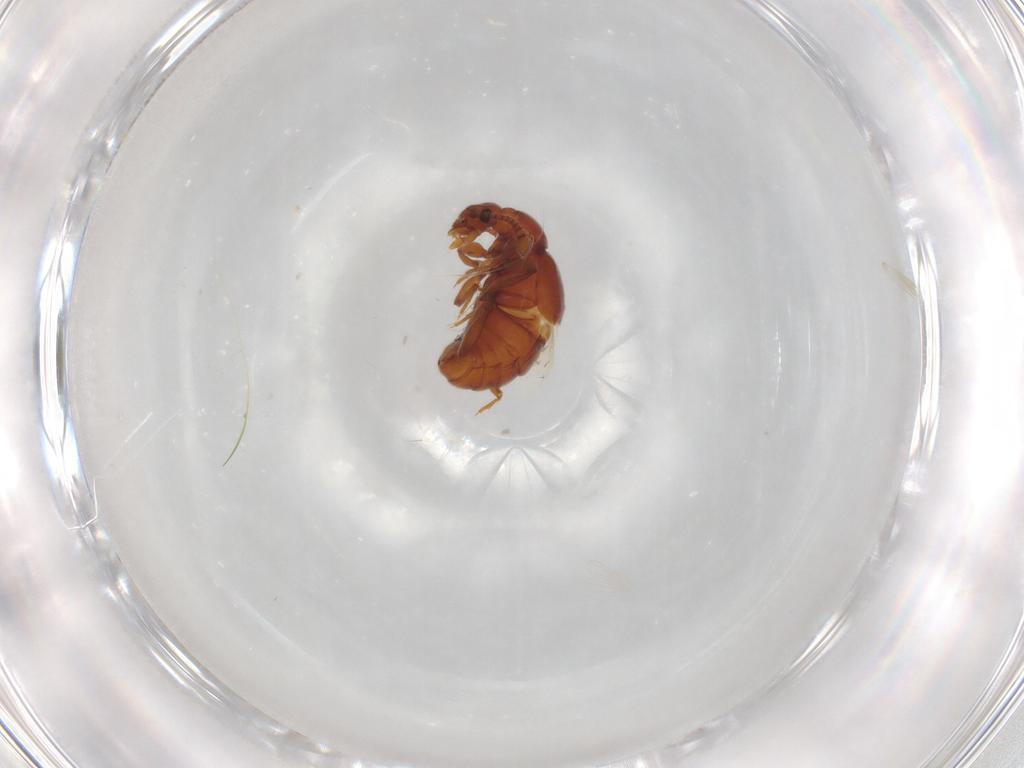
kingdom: Animalia
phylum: Arthropoda
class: Insecta
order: Coleoptera
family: Staphylinidae
